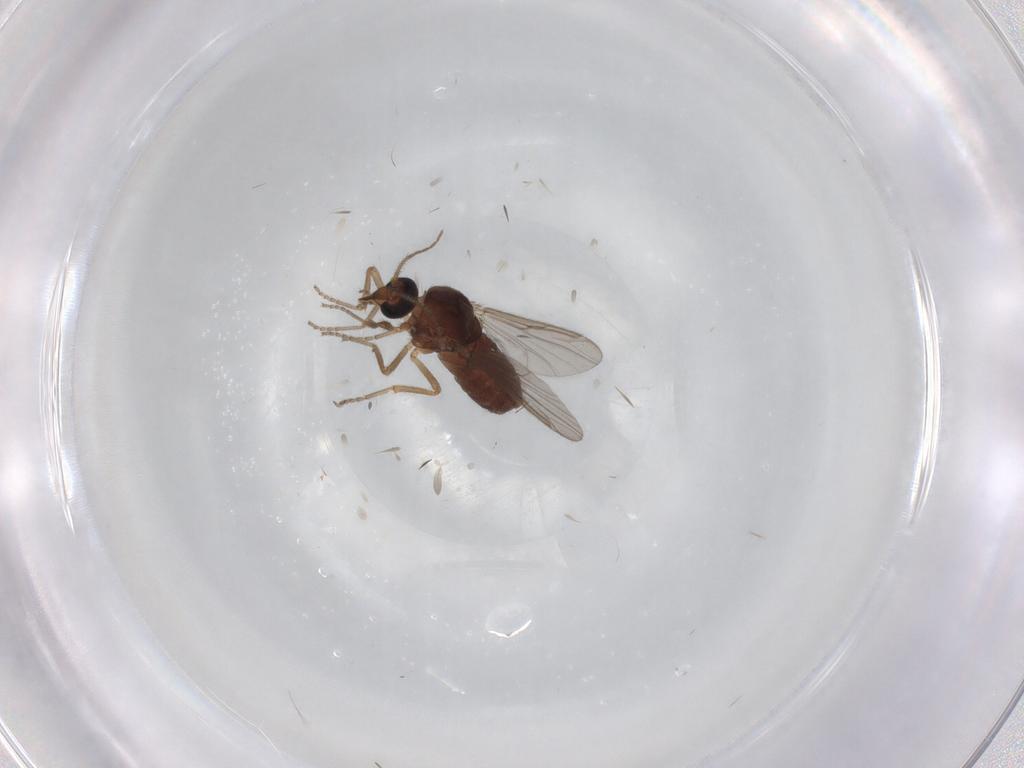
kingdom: Animalia
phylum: Arthropoda
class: Insecta
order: Diptera
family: Chironomidae
